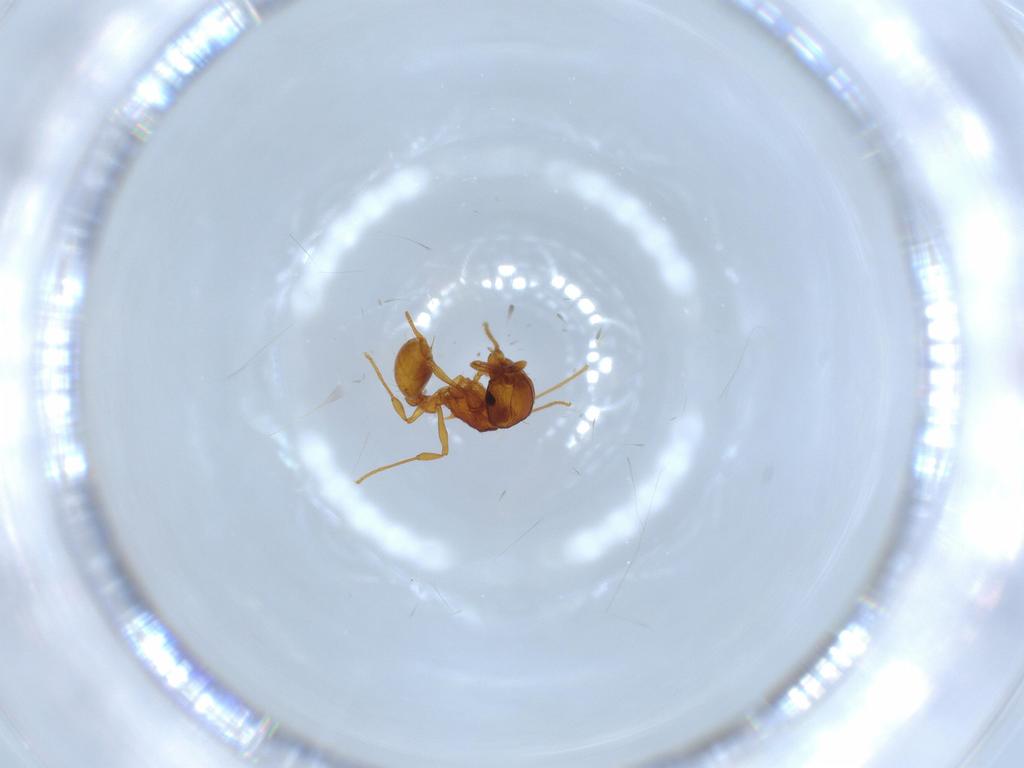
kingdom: Animalia
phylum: Arthropoda
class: Insecta
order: Hymenoptera
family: Formicidae
